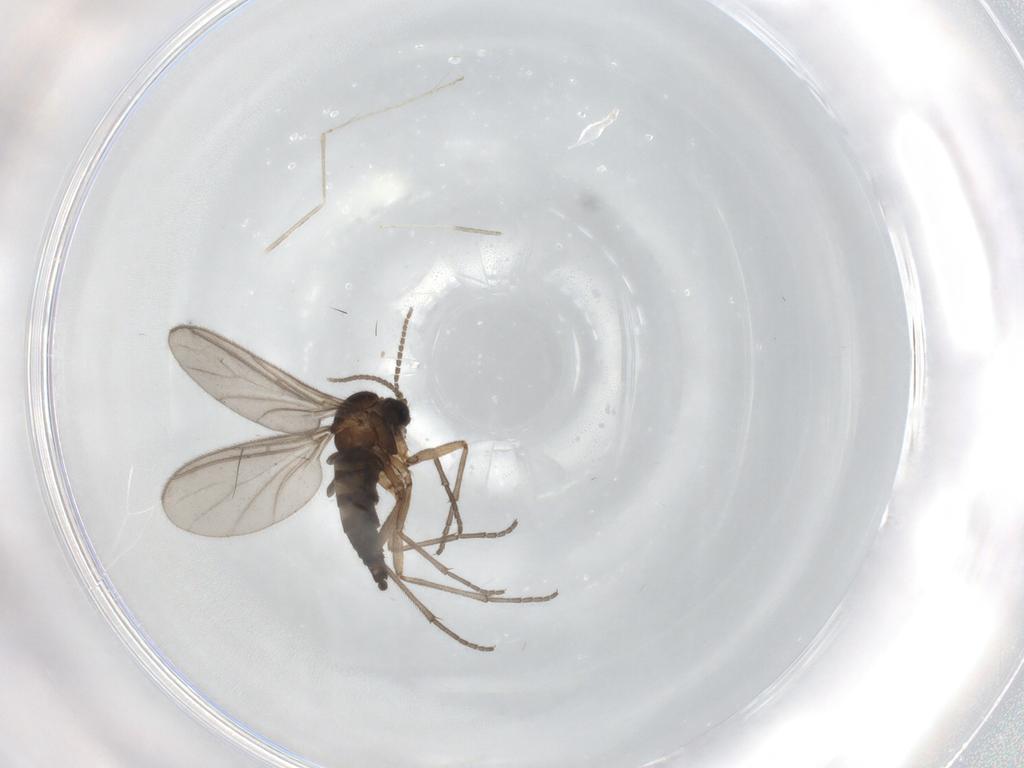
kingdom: Animalia
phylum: Arthropoda
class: Insecta
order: Diptera
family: Sciaridae
